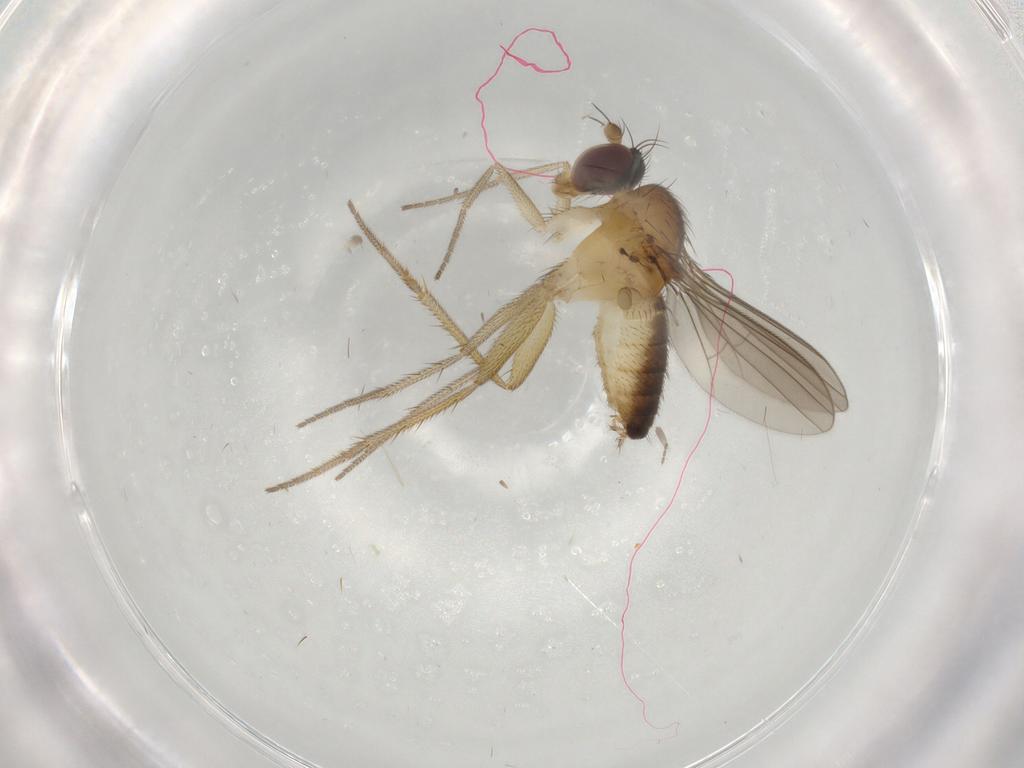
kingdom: Animalia
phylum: Arthropoda
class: Insecta
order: Diptera
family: Dolichopodidae
